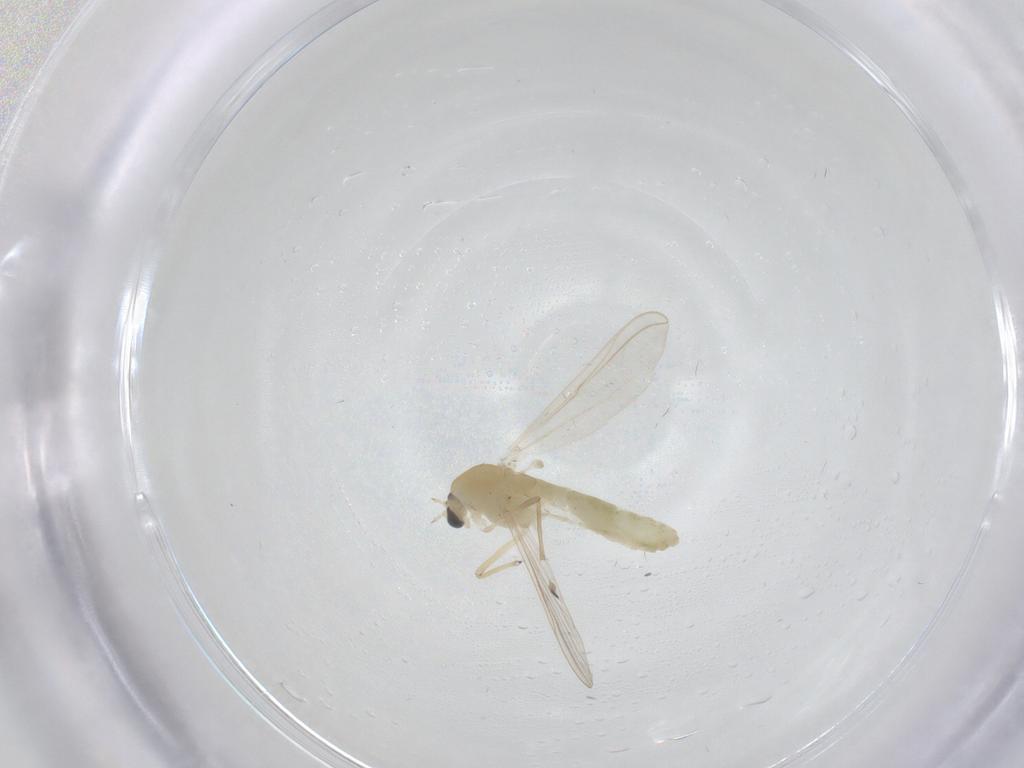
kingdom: Animalia
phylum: Arthropoda
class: Insecta
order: Diptera
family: Chironomidae
